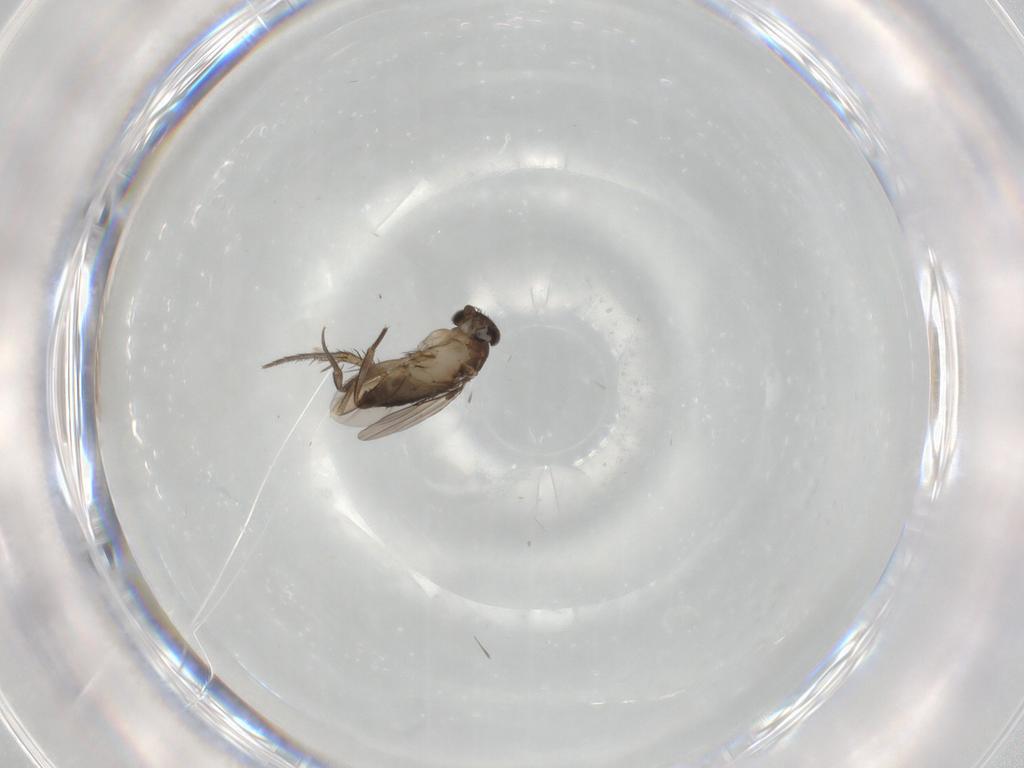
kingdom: Animalia
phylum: Arthropoda
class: Insecta
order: Diptera
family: Phoridae
